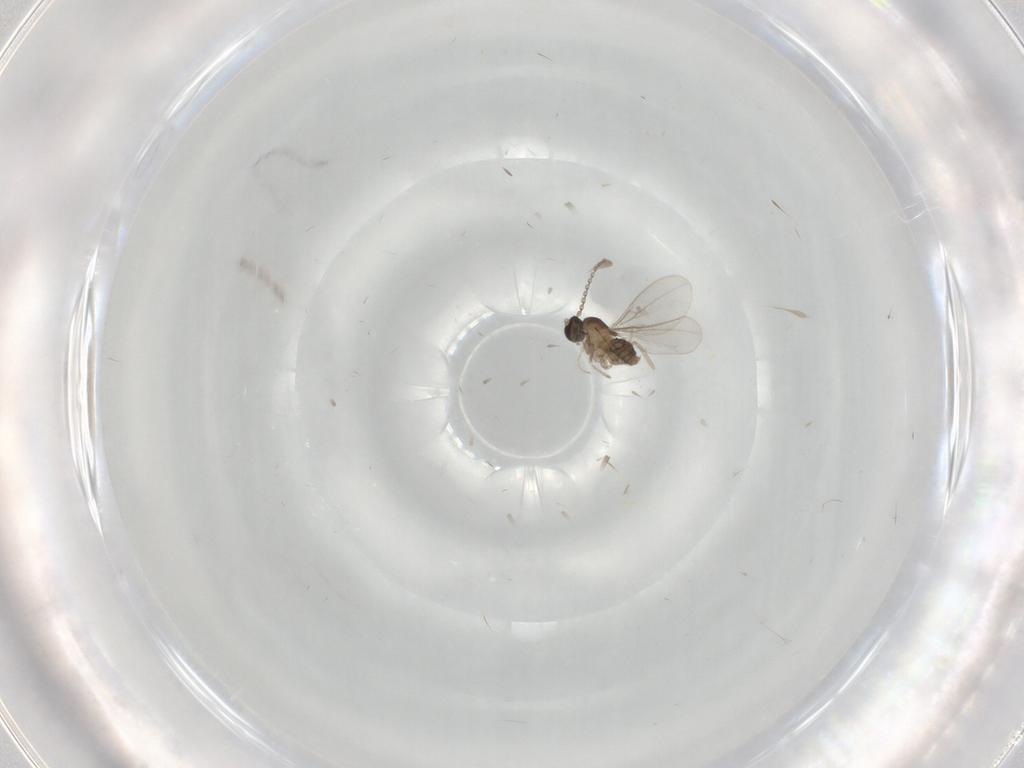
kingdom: Animalia
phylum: Arthropoda
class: Insecta
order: Diptera
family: Cecidomyiidae
